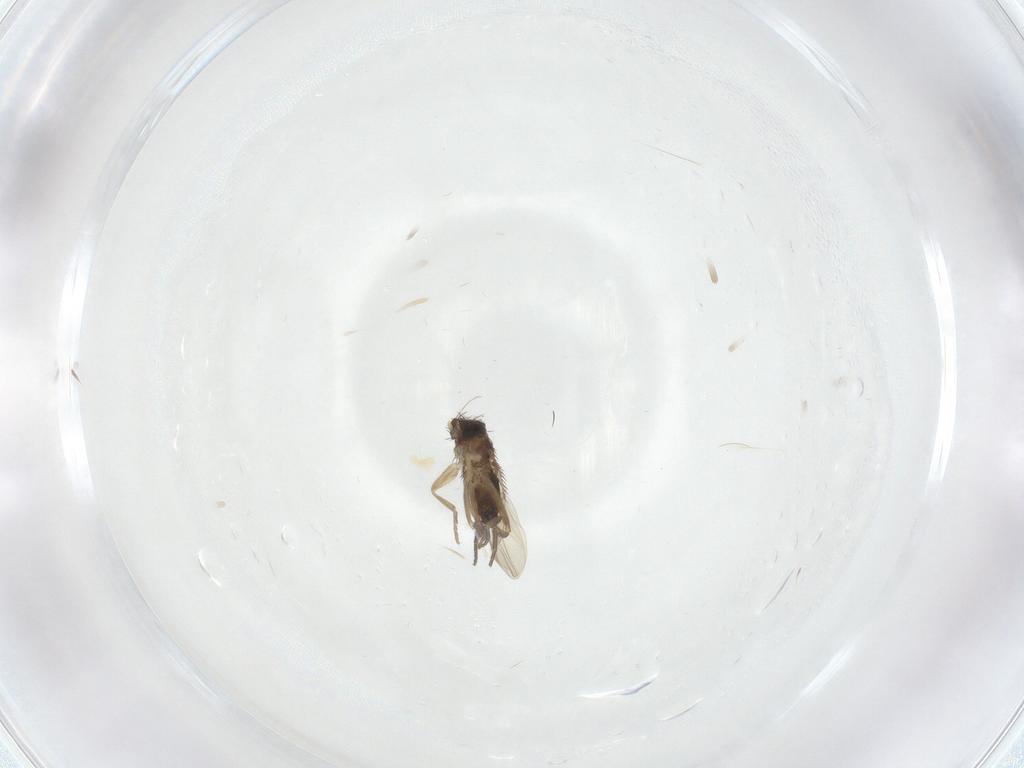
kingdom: Animalia
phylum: Arthropoda
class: Insecta
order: Diptera
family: Phoridae
